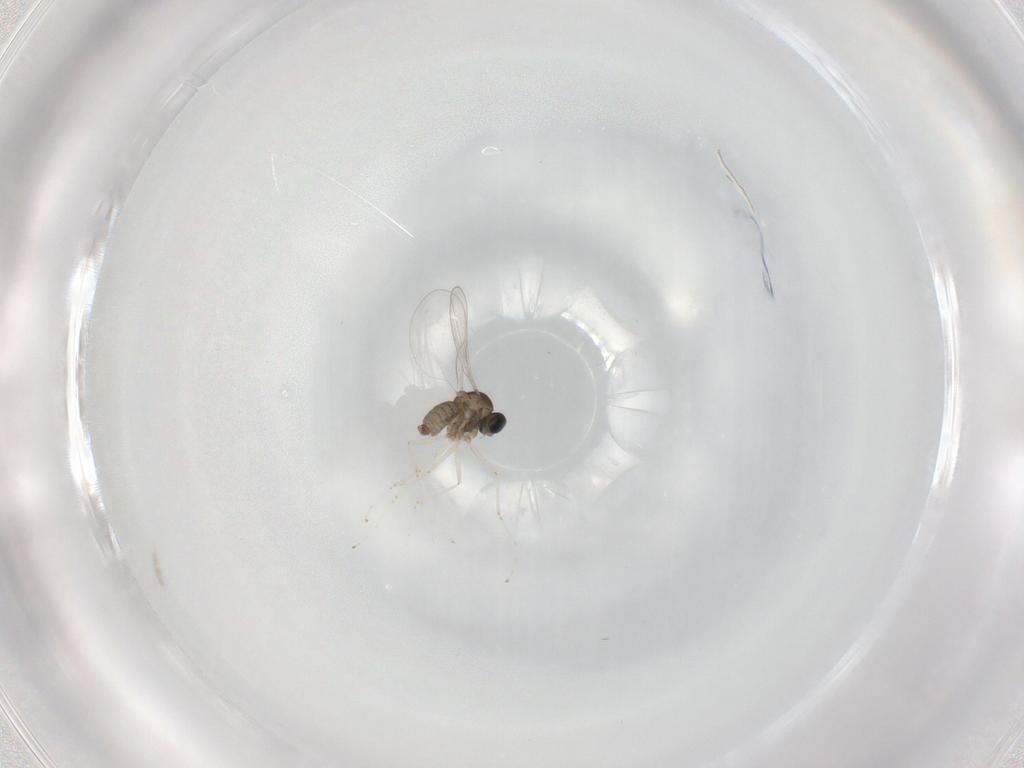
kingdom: Animalia
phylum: Arthropoda
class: Insecta
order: Diptera
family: Cecidomyiidae
